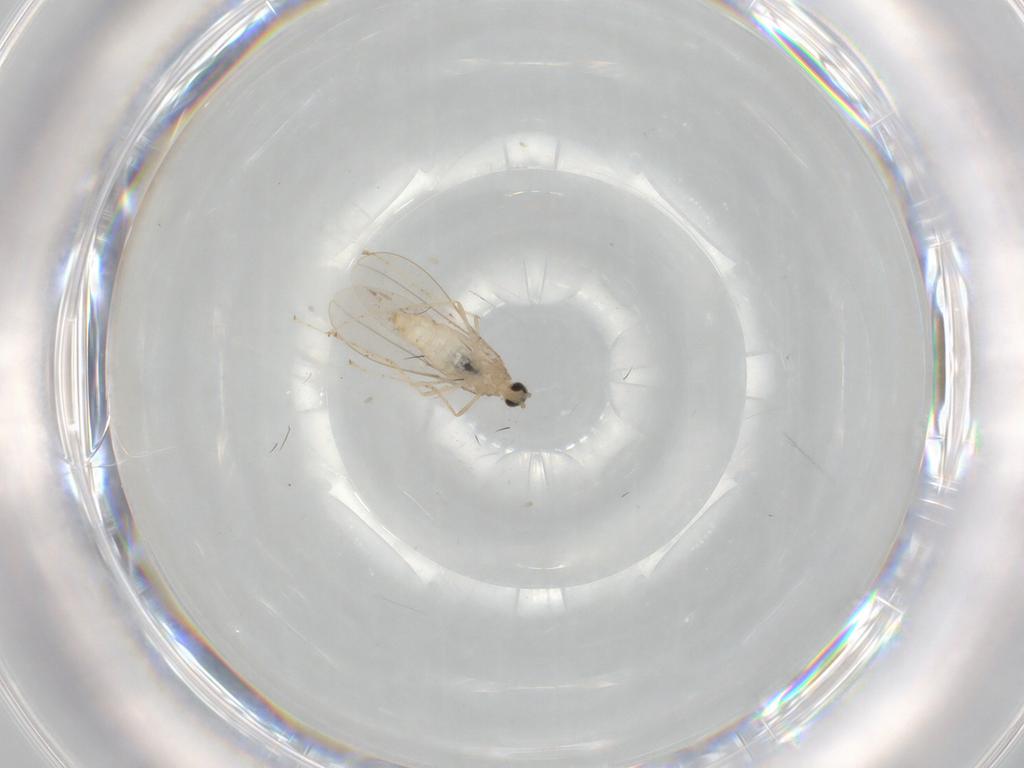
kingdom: Animalia
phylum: Arthropoda
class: Insecta
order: Diptera
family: Cecidomyiidae
